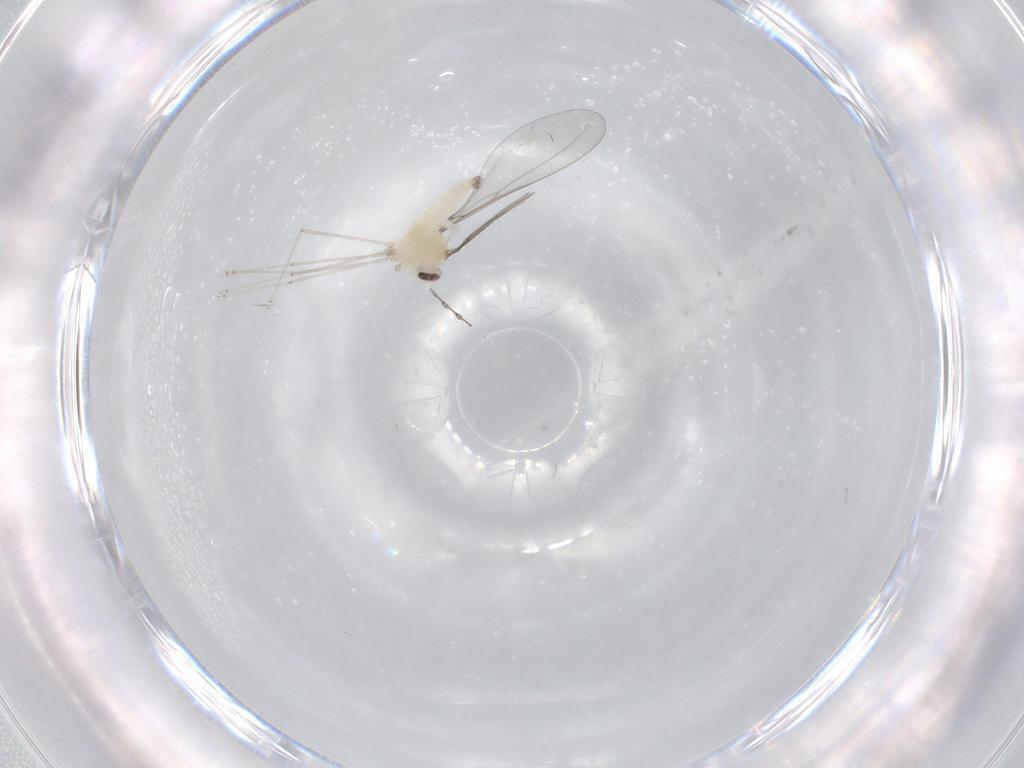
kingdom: Animalia
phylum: Arthropoda
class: Insecta
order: Diptera
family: Cecidomyiidae
